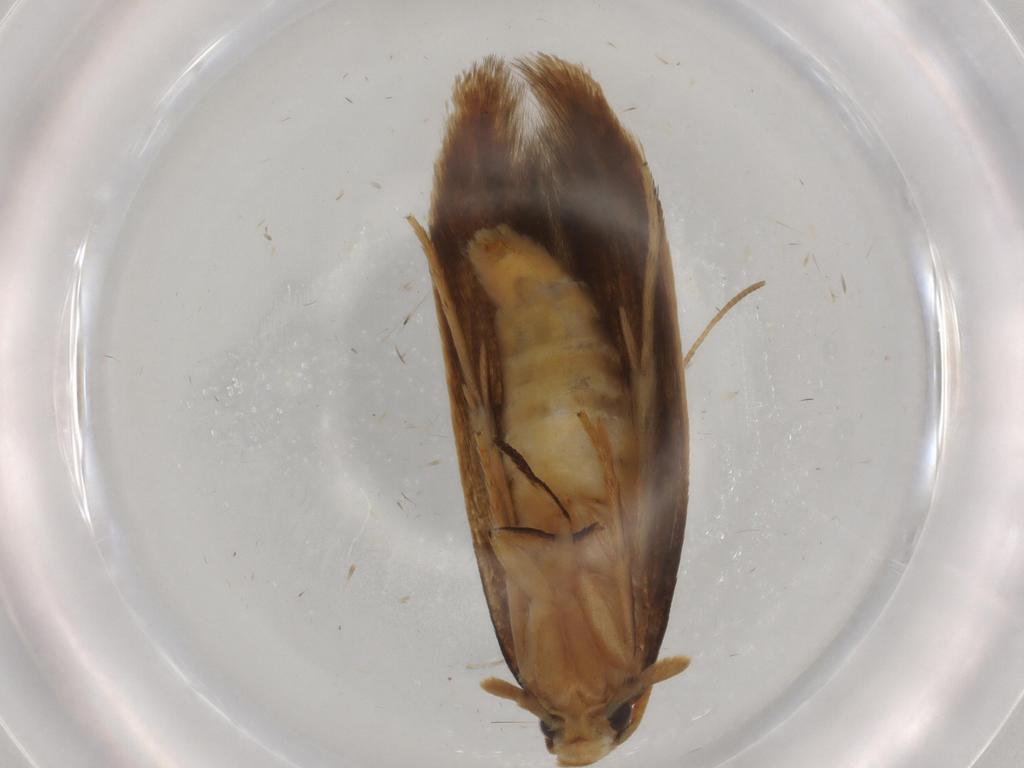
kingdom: Animalia
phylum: Arthropoda
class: Insecta
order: Lepidoptera
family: Tineidae
